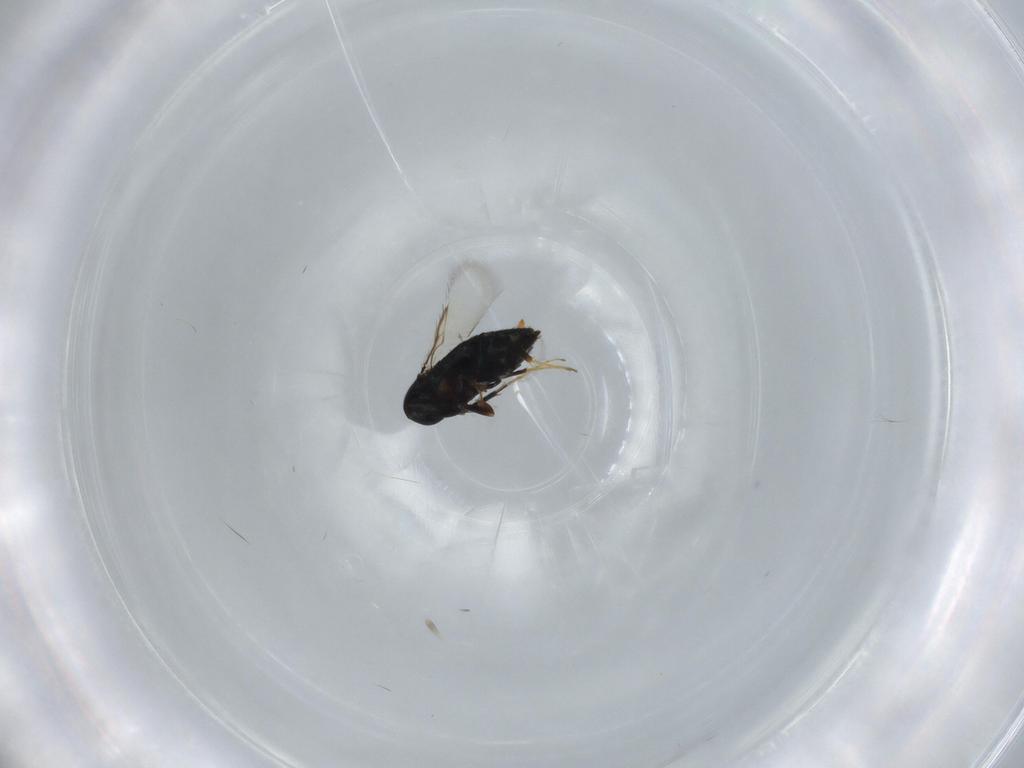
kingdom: Animalia
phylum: Arthropoda
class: Insecta
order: Hymenoptera
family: Signiphoridae
